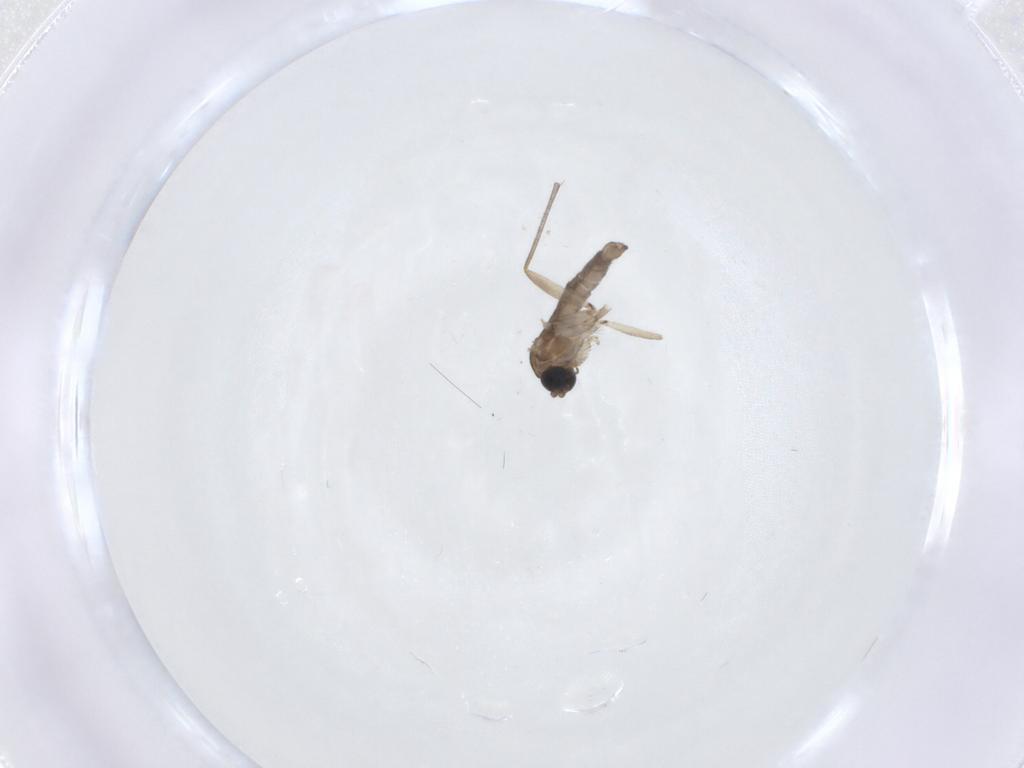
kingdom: Animalia
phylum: Arthropoda
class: Insecta
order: Diptera
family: Sciaridae
